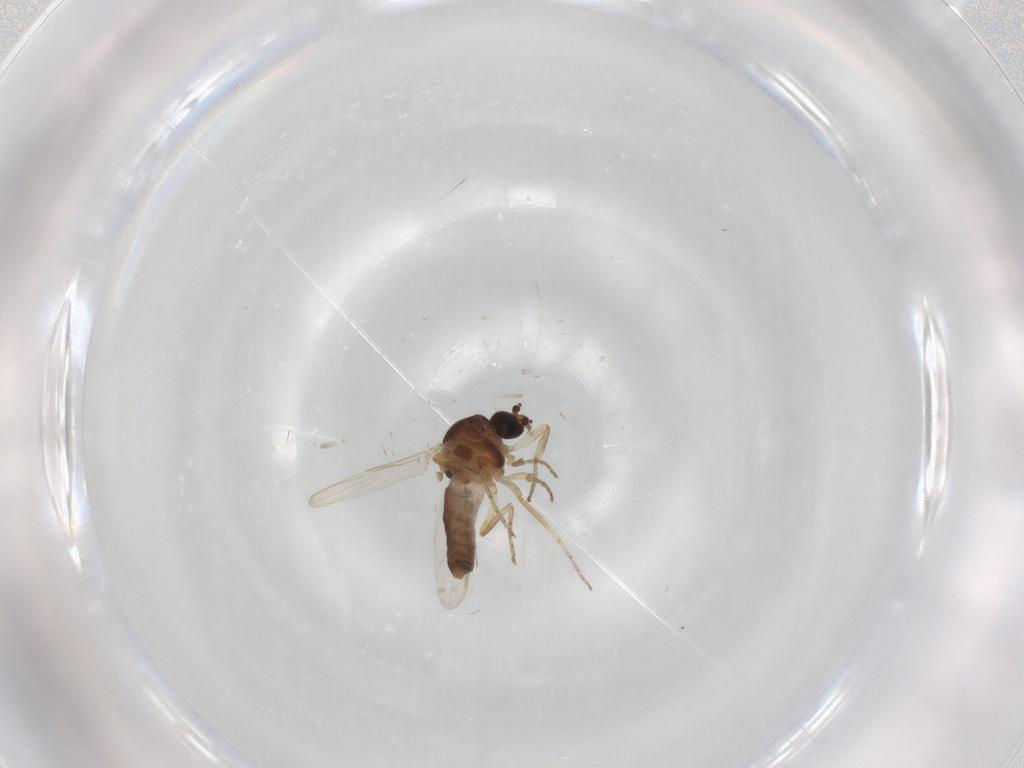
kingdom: Animalia
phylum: Arthropoda
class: Insecta
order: Diptera
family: Ceratopogonidae
